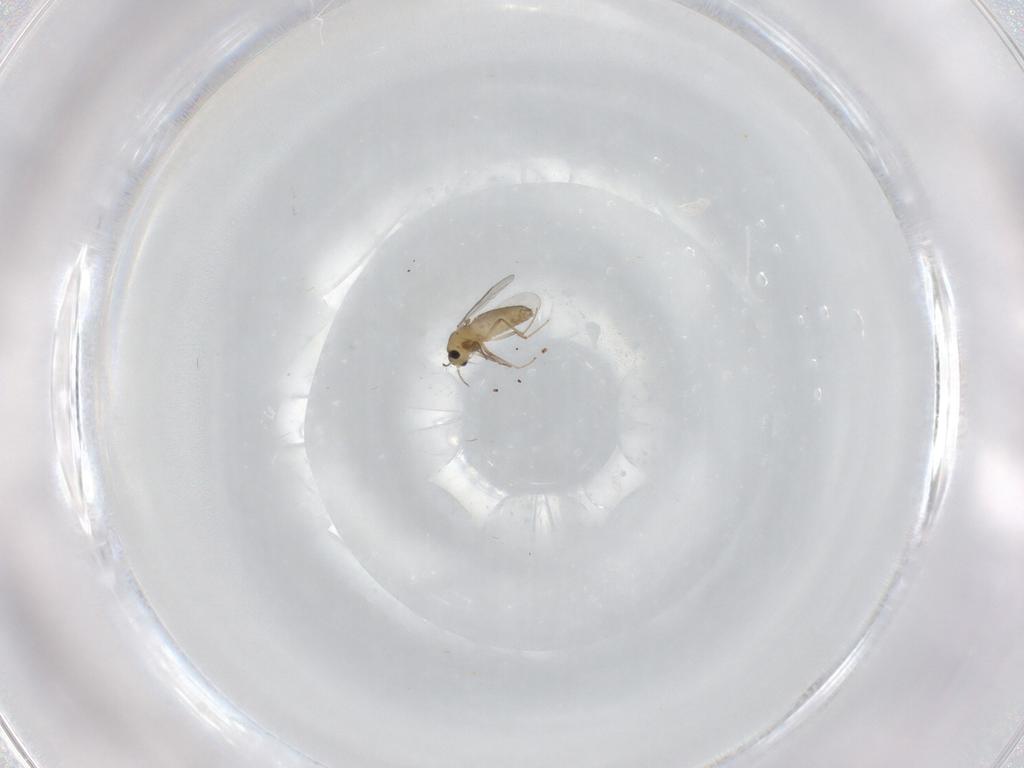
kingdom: Animalia
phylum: Arthropoda
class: Insecta
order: Diptera
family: Chironomidae
